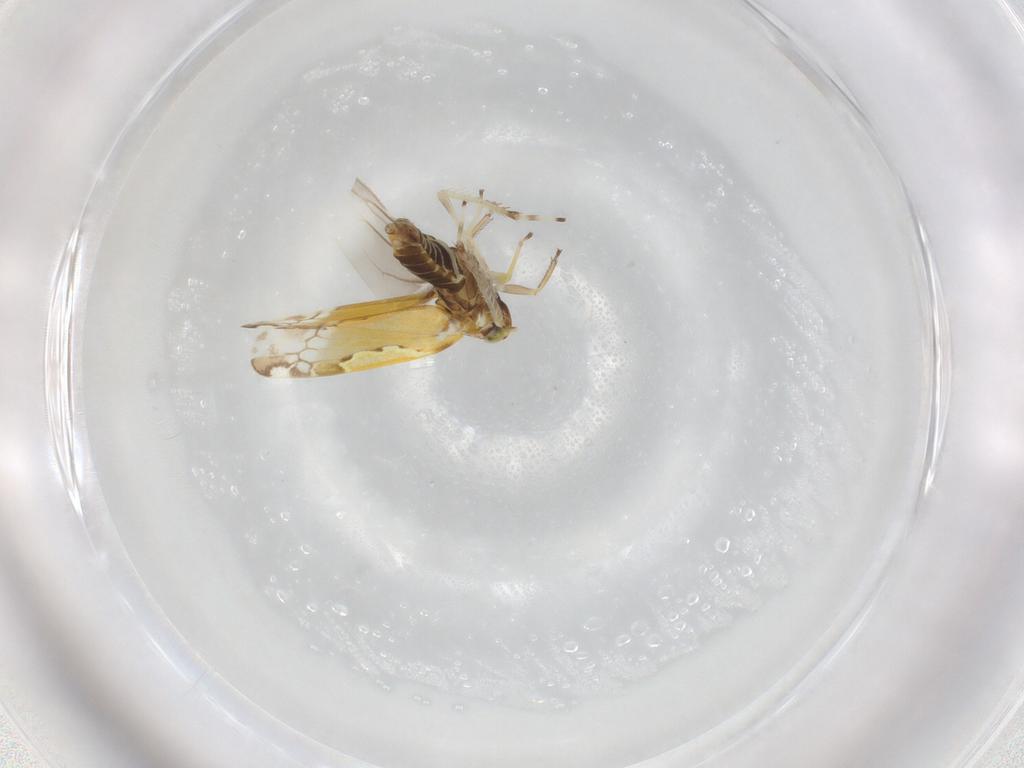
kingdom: Animalia
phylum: Arthropoda
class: Insecta
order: Hemiptera
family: Cicadellidae
